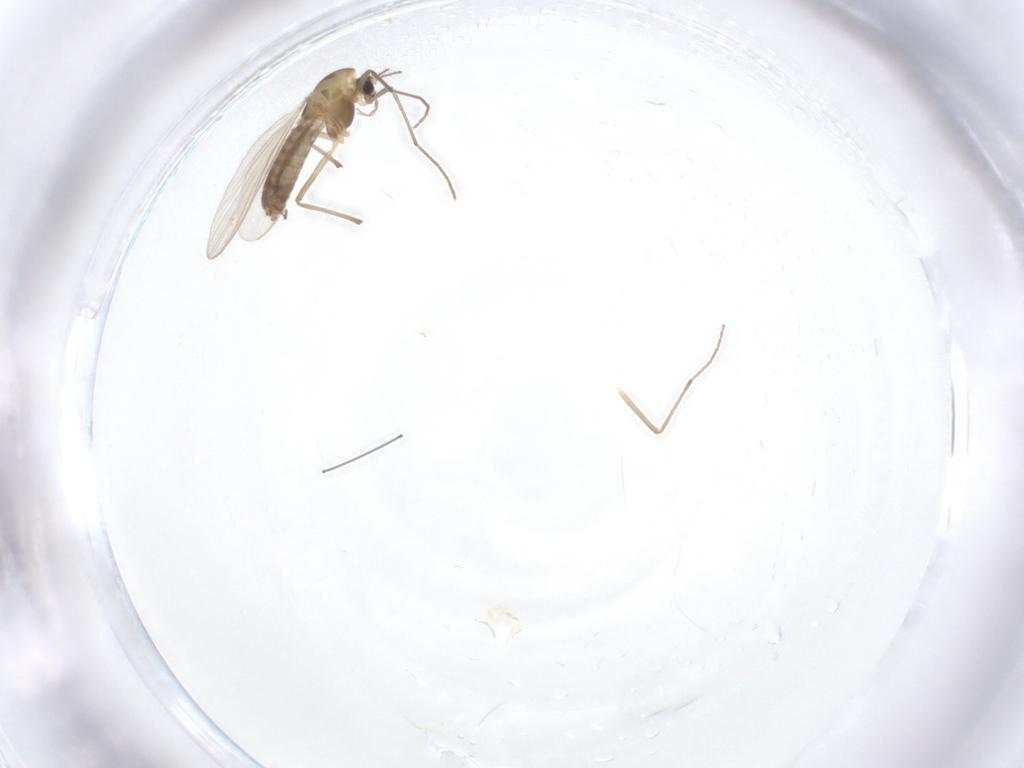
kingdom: Animalia
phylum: Arthropoda
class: Insecta
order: Diptera
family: Chironomidae
